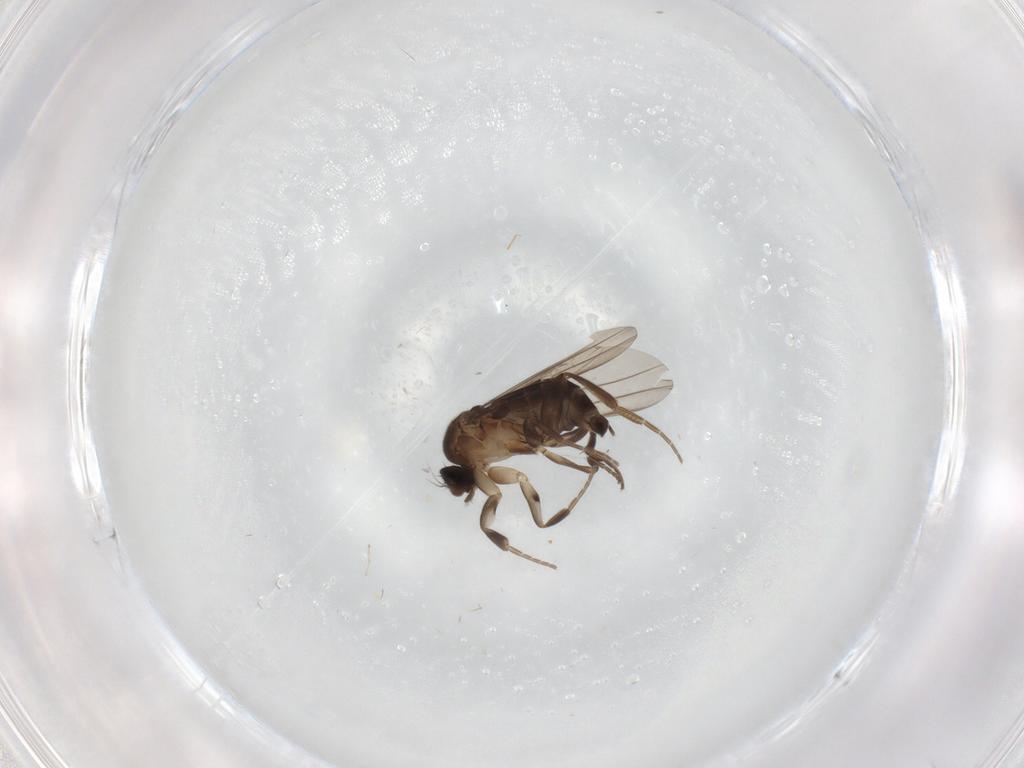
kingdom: Animalia
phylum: Arthropoda
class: Insecta
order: Diptera
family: Phoridae
